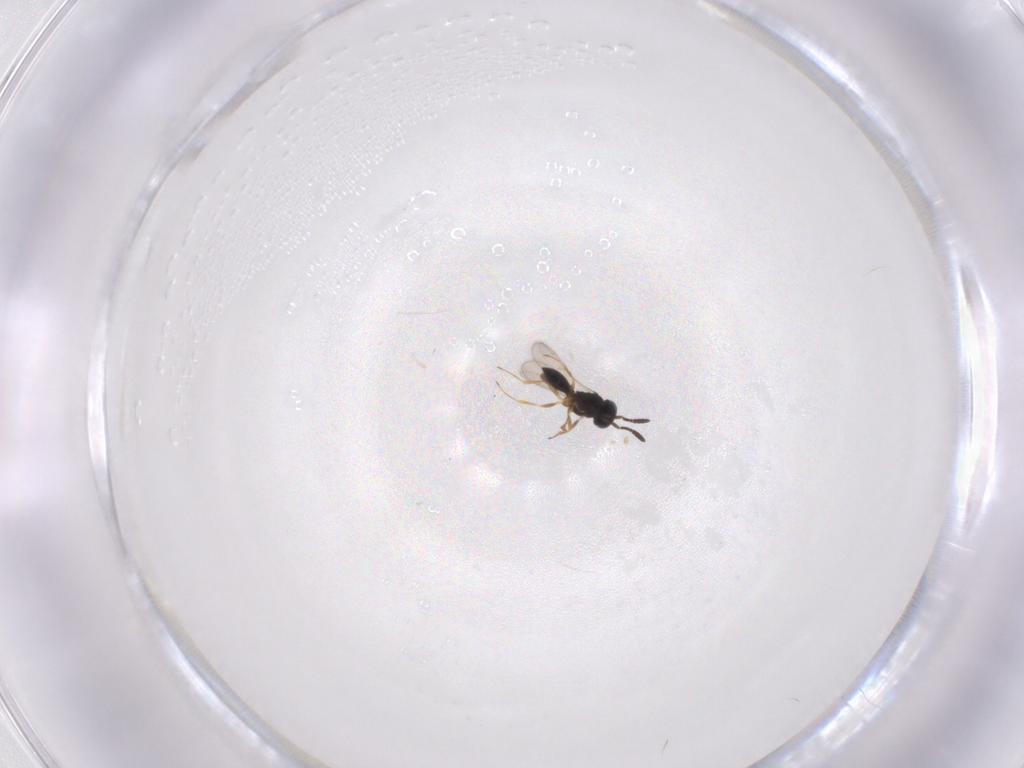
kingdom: Animalia
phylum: Arthropoda
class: Insecta
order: Hymenoptera
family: Scelionidae
